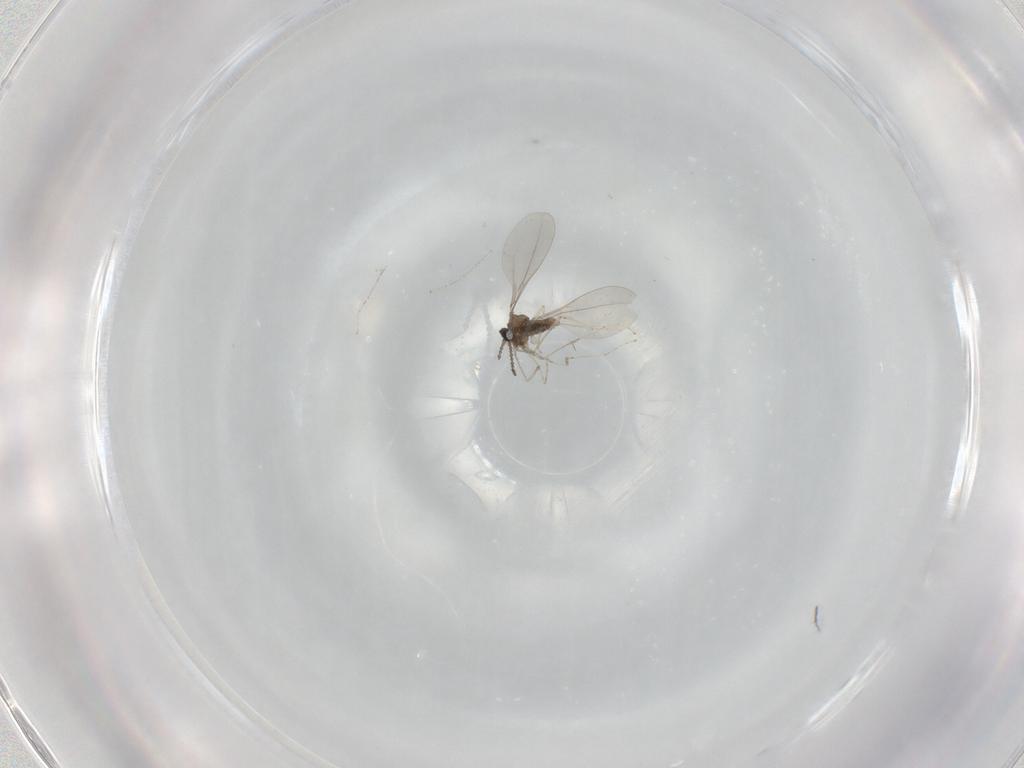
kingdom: Animalia
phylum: Arthropoda
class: Insecta
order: Diptera
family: Cecidomyiidae
